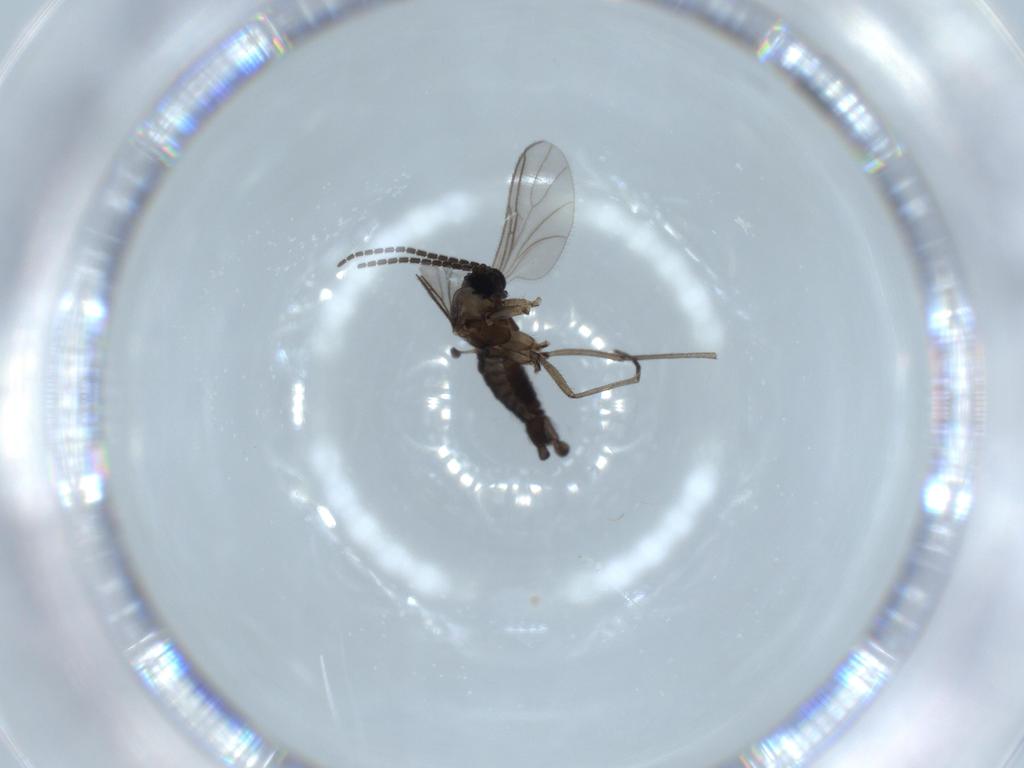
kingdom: Animalia
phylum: Arthropoda
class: Insecta
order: Diptera
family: Sciaridae
